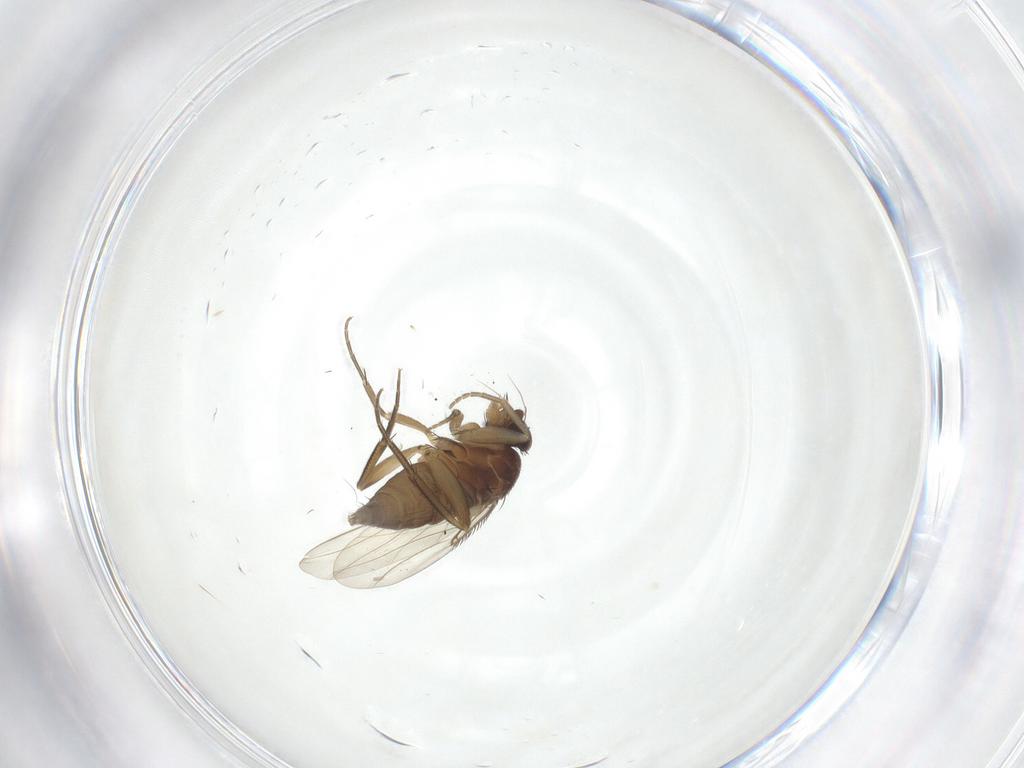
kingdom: Animalia
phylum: Arthropoda
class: Insecta
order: Diptera
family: Phoridae
